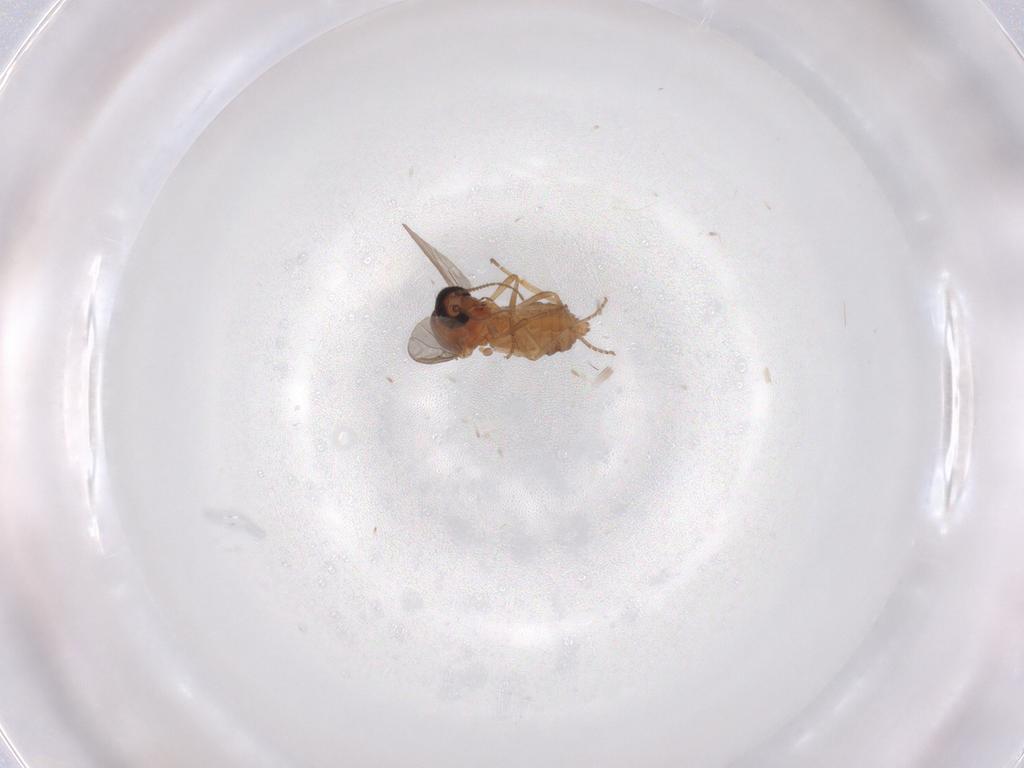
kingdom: Animalia
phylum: Arthropoda
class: Insecta
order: Diptera
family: Ceratopogonidae
